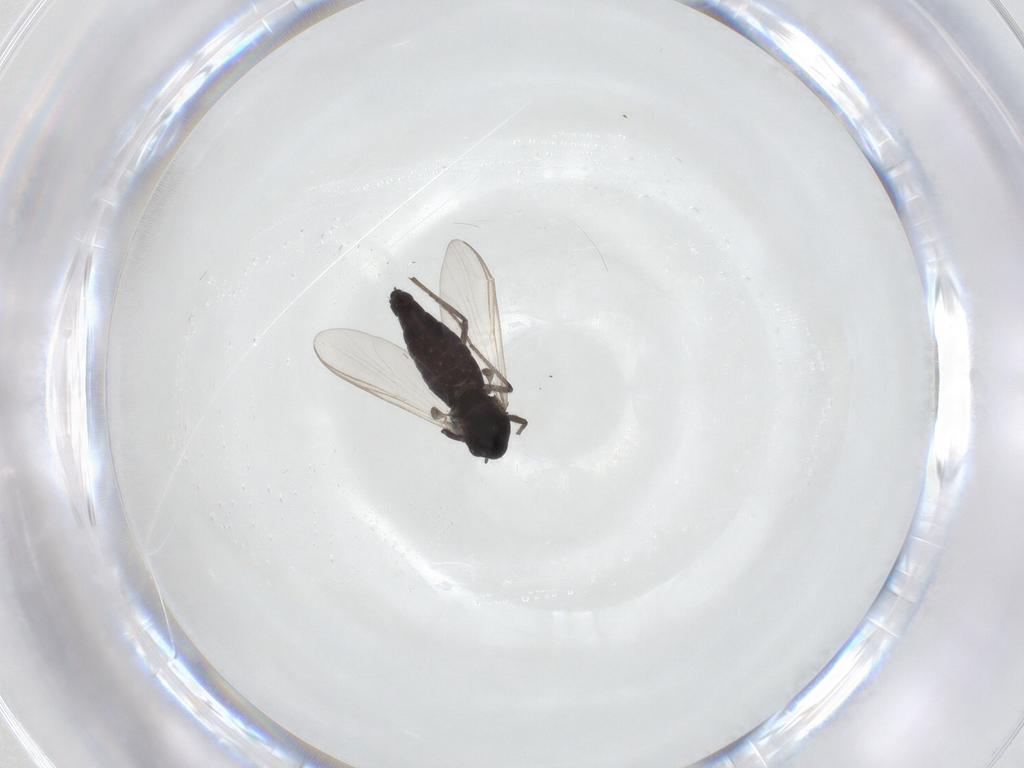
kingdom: Animalia
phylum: Arthropoda
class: Insecta
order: Diptera
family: Chironomidae
